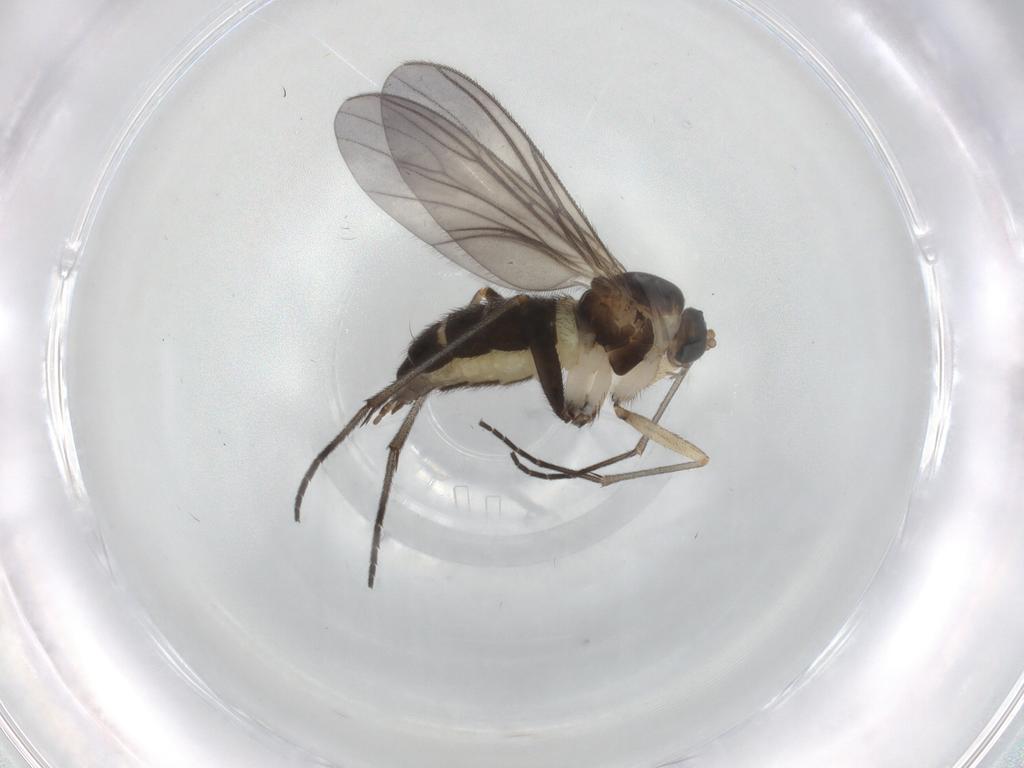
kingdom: Animalia
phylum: Arthropoda
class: Insecta
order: Diptera
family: Sciaridae
